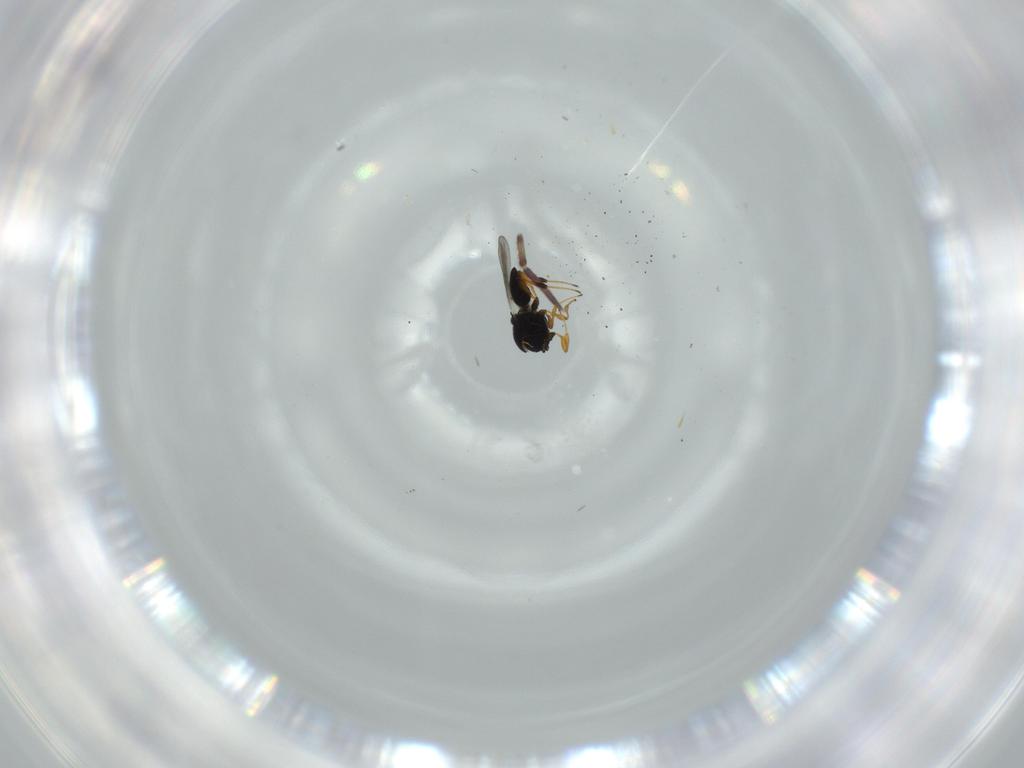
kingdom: Animalia
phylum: Arthropoda
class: Insecta
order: Hymenoptera
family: Platygastridae
